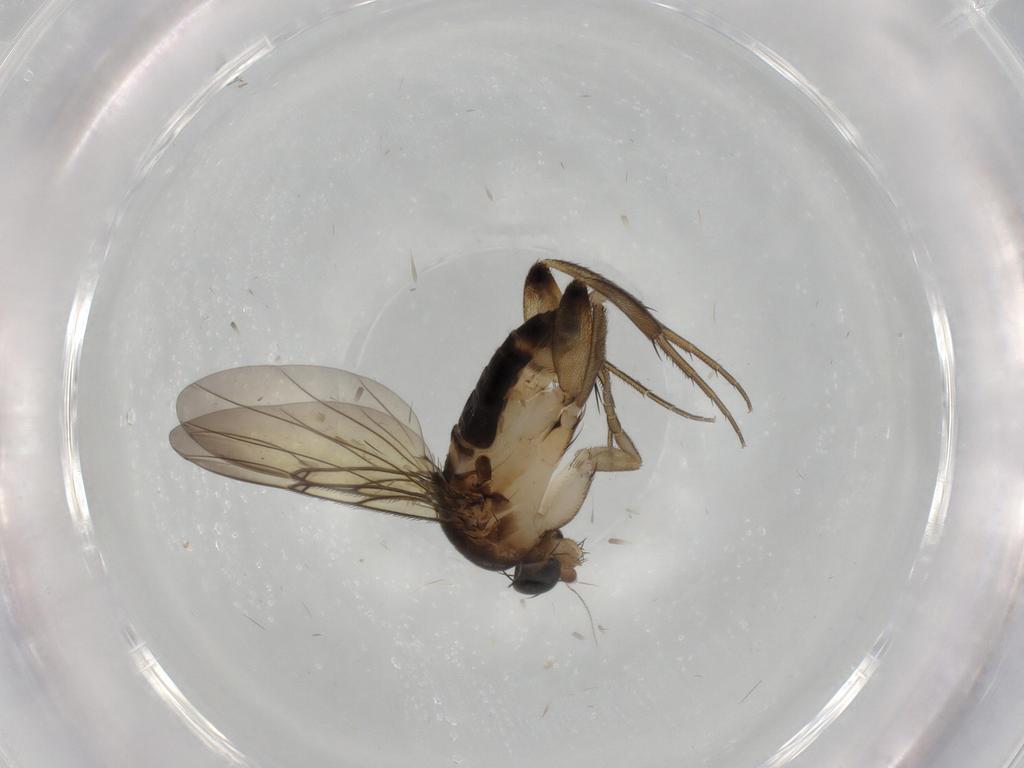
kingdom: Animalia
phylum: Arthropoda
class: Insecta
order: Diptera
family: Phoridae
